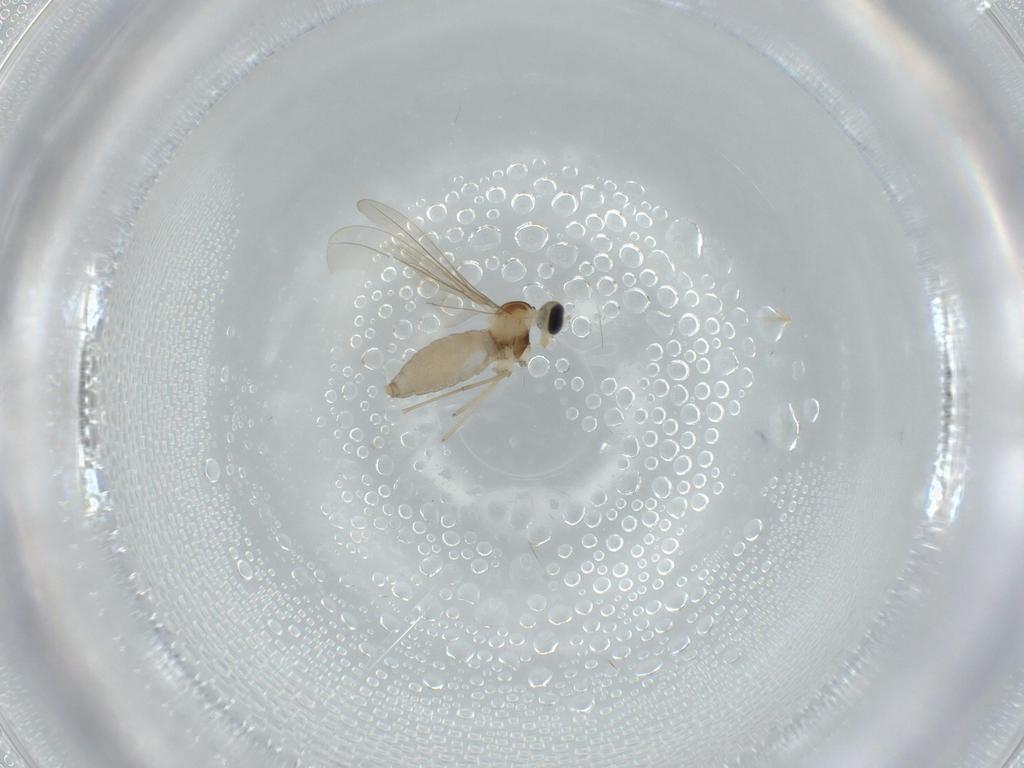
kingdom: Animalia
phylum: Arthropoda
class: Insecta
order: Diptera
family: Cecidomyiidae
